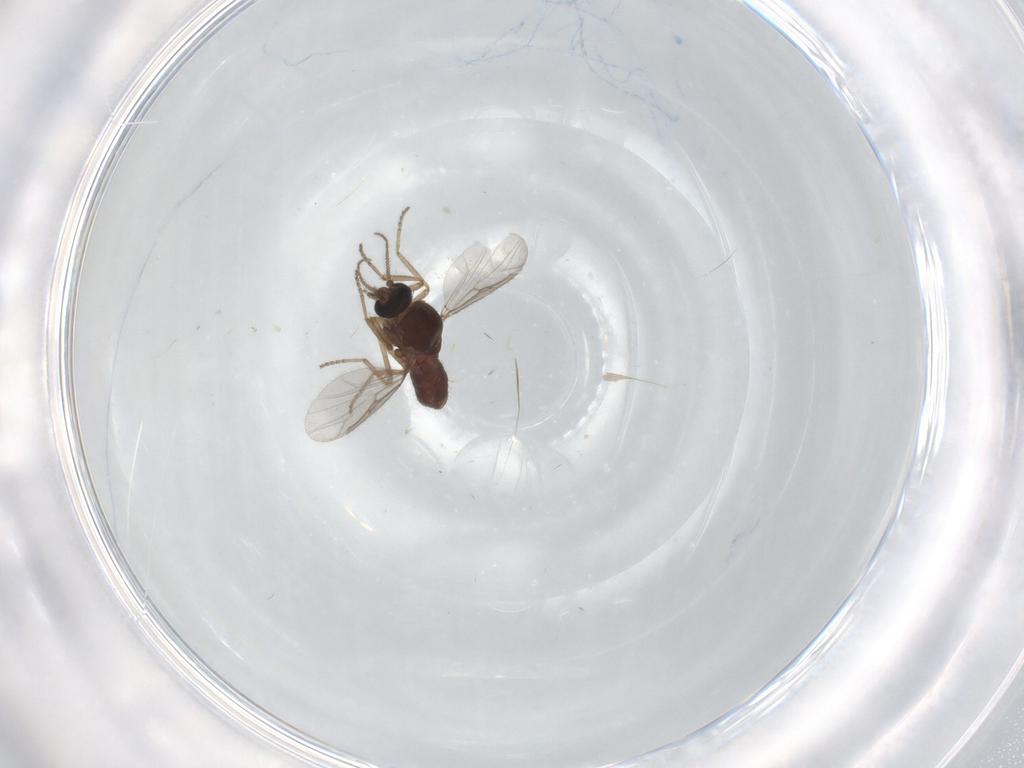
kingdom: Animalia
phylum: Arthropoda
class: Insecta
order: Diptera
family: Ceratopogonidae
